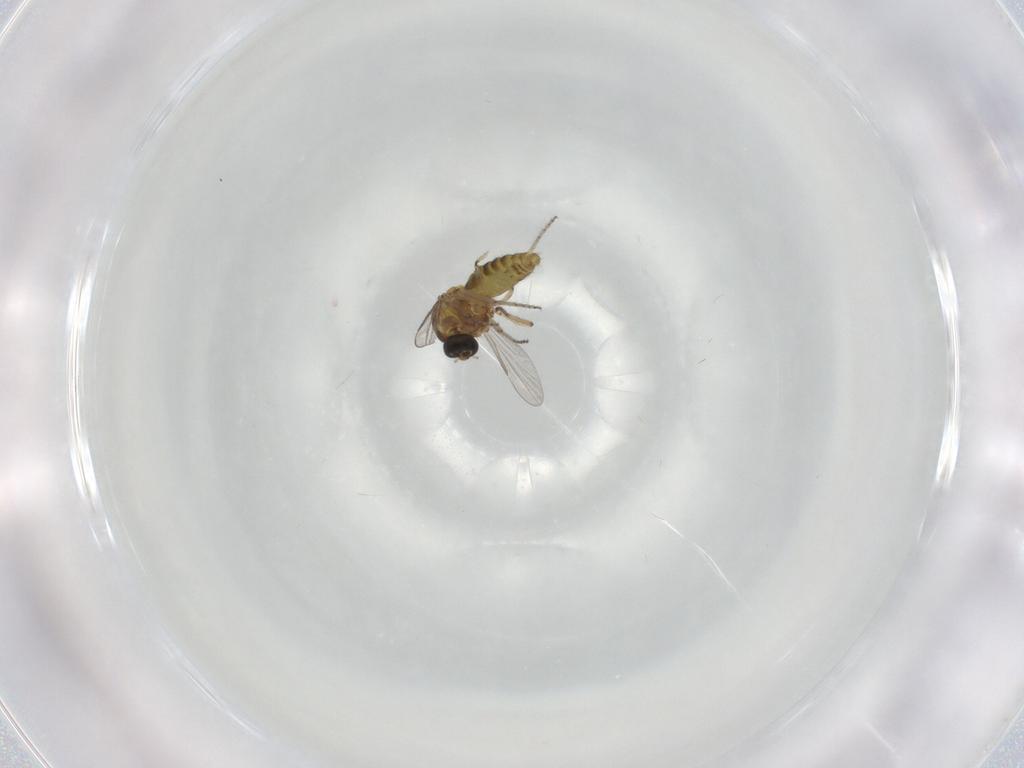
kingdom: Animalia
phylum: Arthropoda
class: Insecta
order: Diptera
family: Ceratopogonidae
